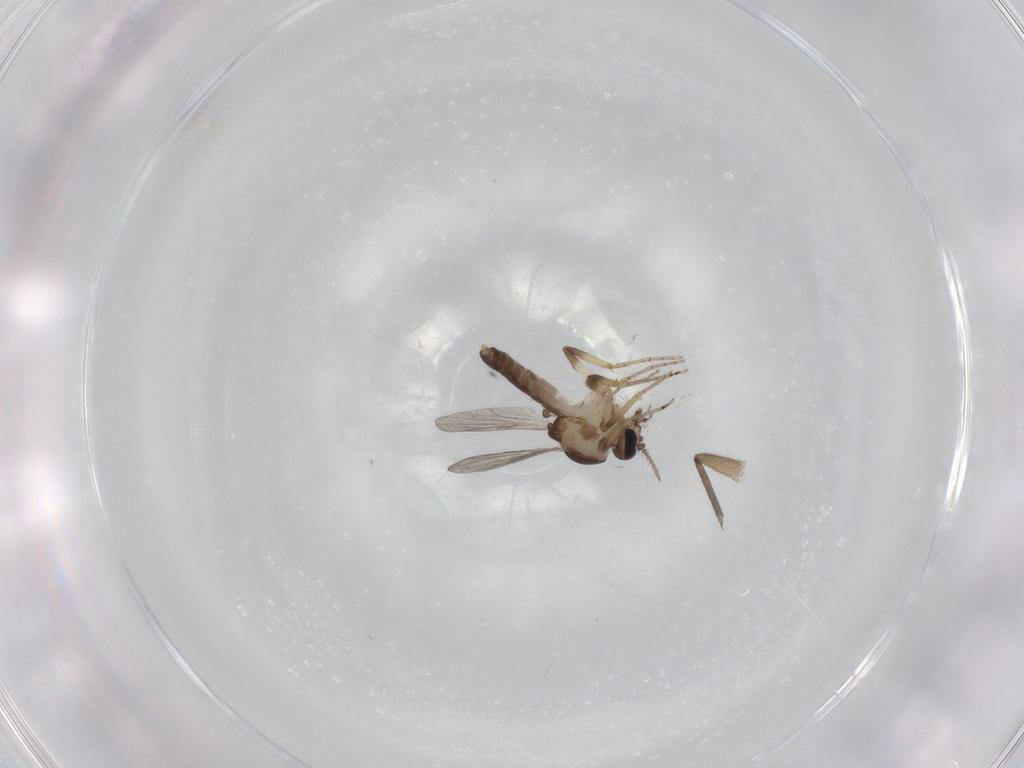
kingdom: Animalia
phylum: Arthropoda
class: Insecta
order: Diptera
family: Ceratopogonidae
